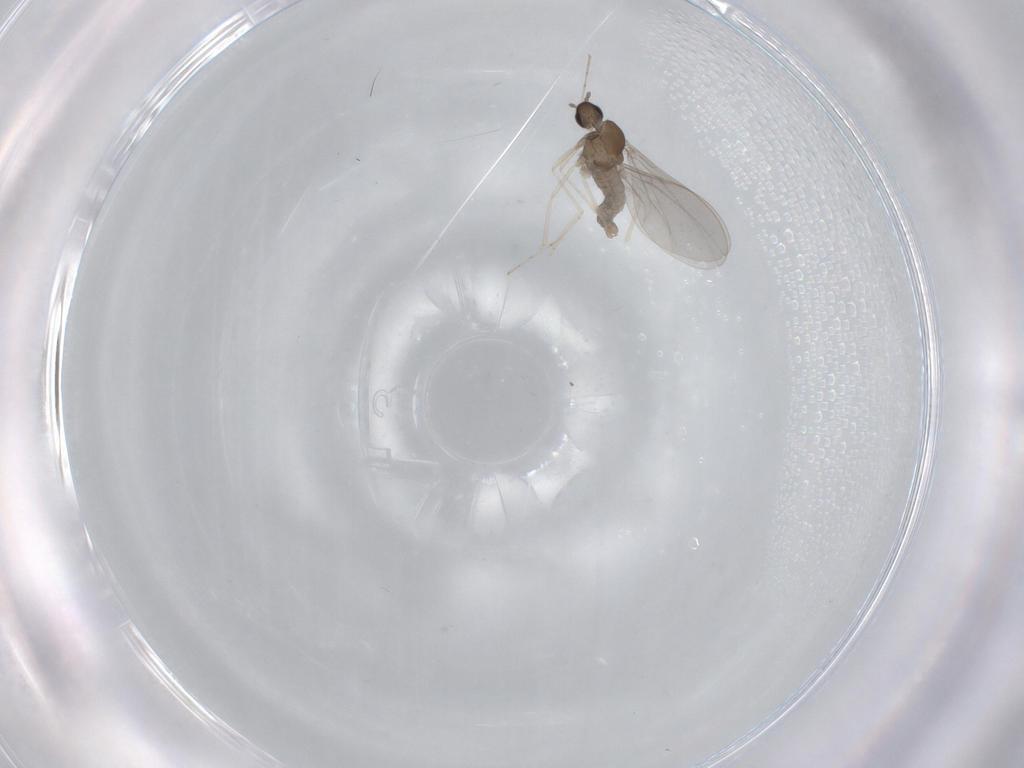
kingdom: Animalia
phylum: Arthropoda
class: Insecta
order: Diptera
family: Cecidomyiidae
